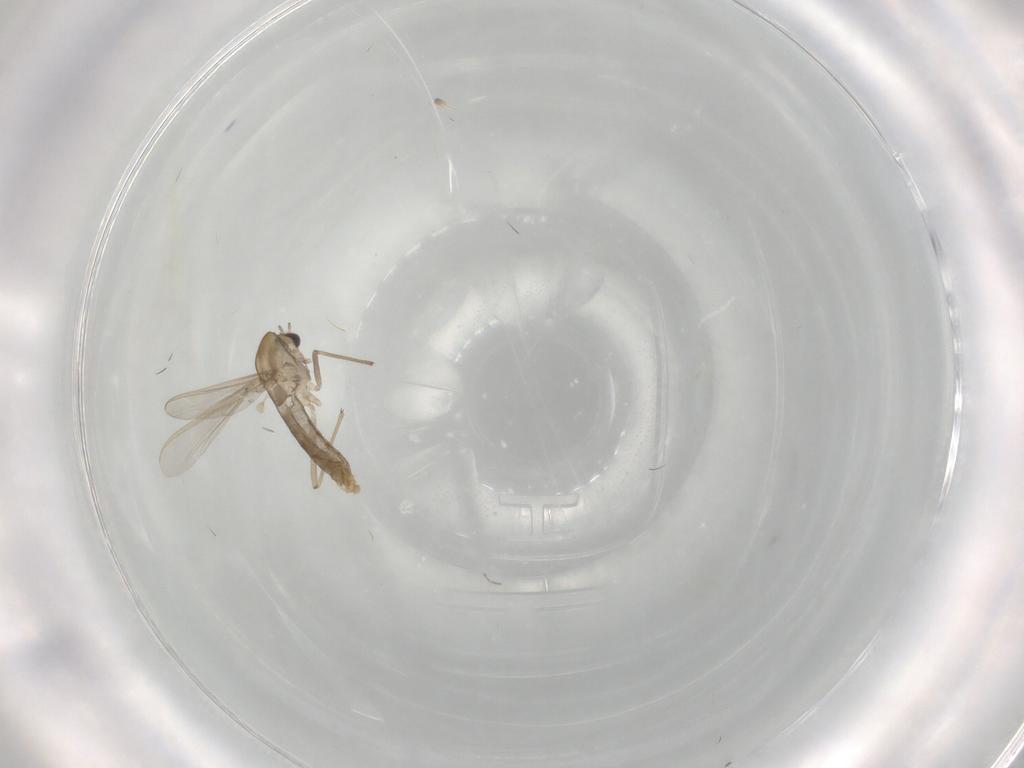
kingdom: Animalia
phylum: Arthropoda
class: Insecta
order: Diptera
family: Chironomidae
